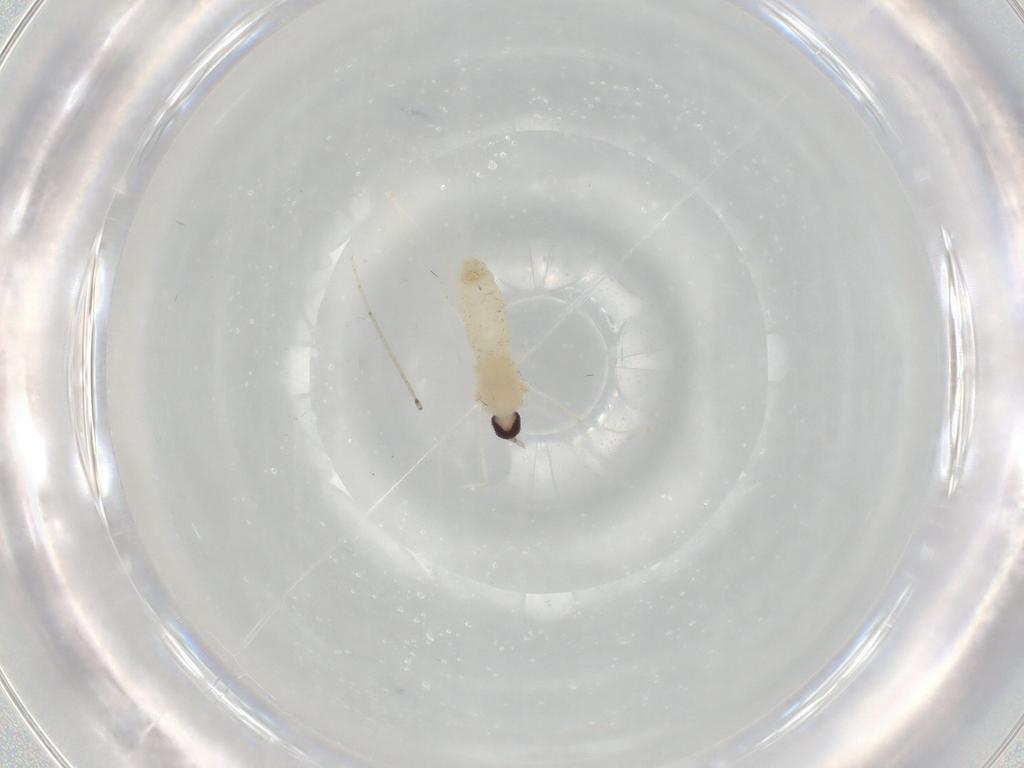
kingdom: Animalia
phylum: Arthropoda
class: Insecta
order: Diptera
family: Cecidomyiidae
